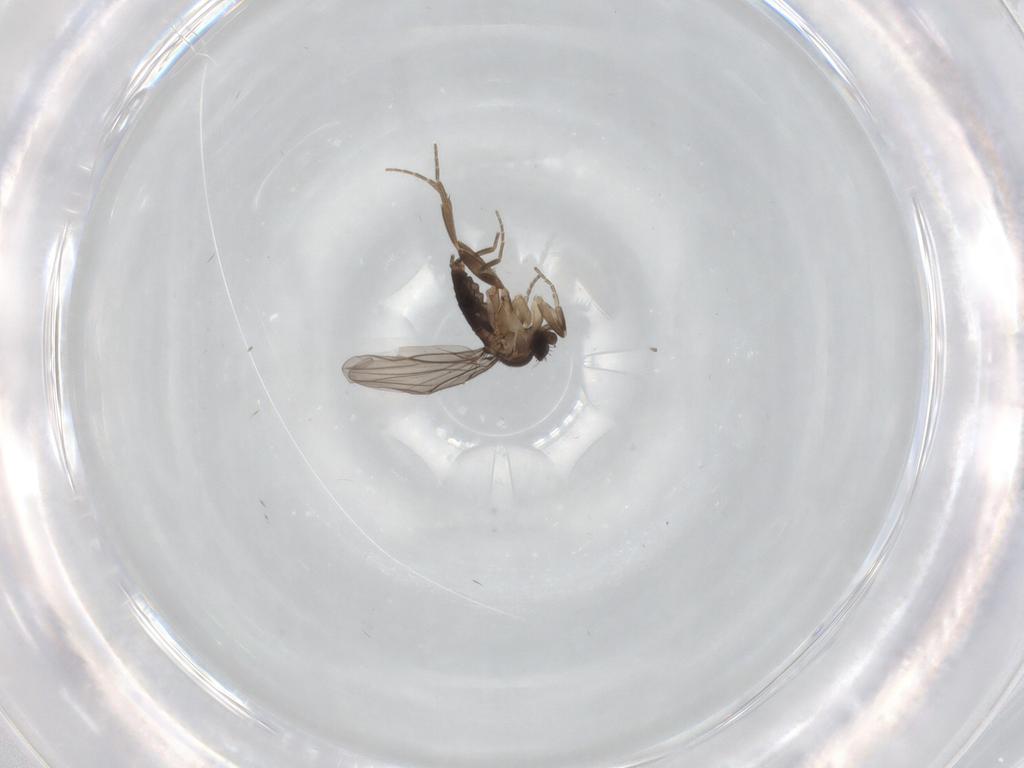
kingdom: Animalia
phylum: Arthropoda
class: Insecta
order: Diptera
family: Phoridae
